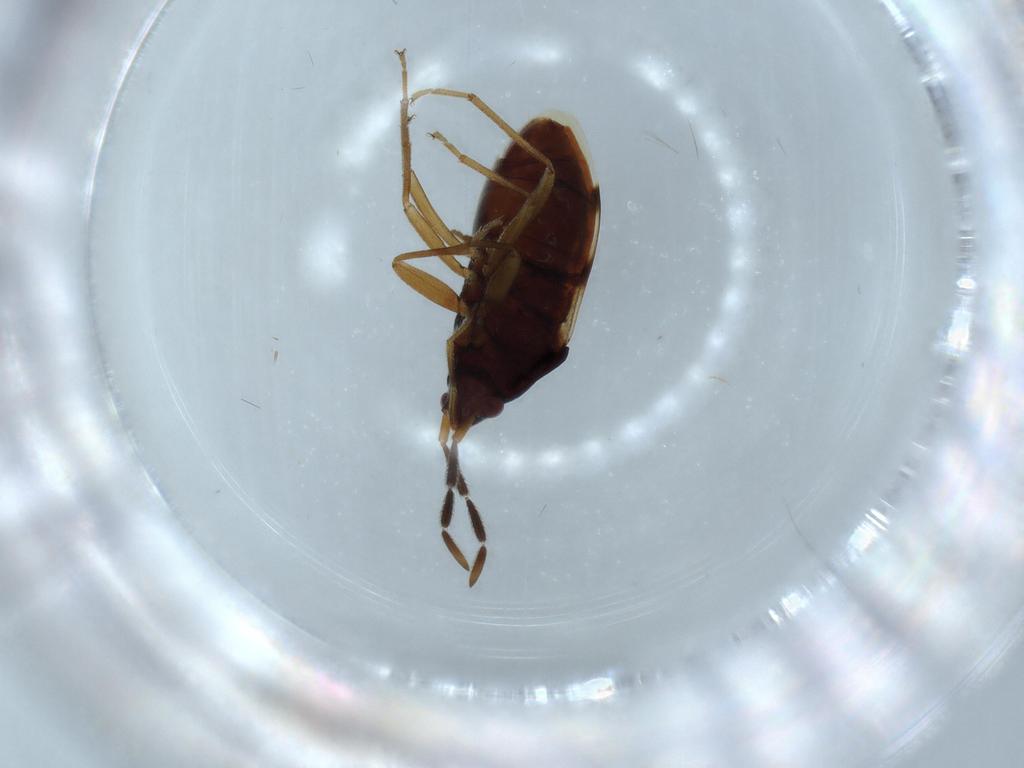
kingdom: Animalia
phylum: Arthropoda
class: Insecta
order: Hemiptera
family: Rhyparochromidae
